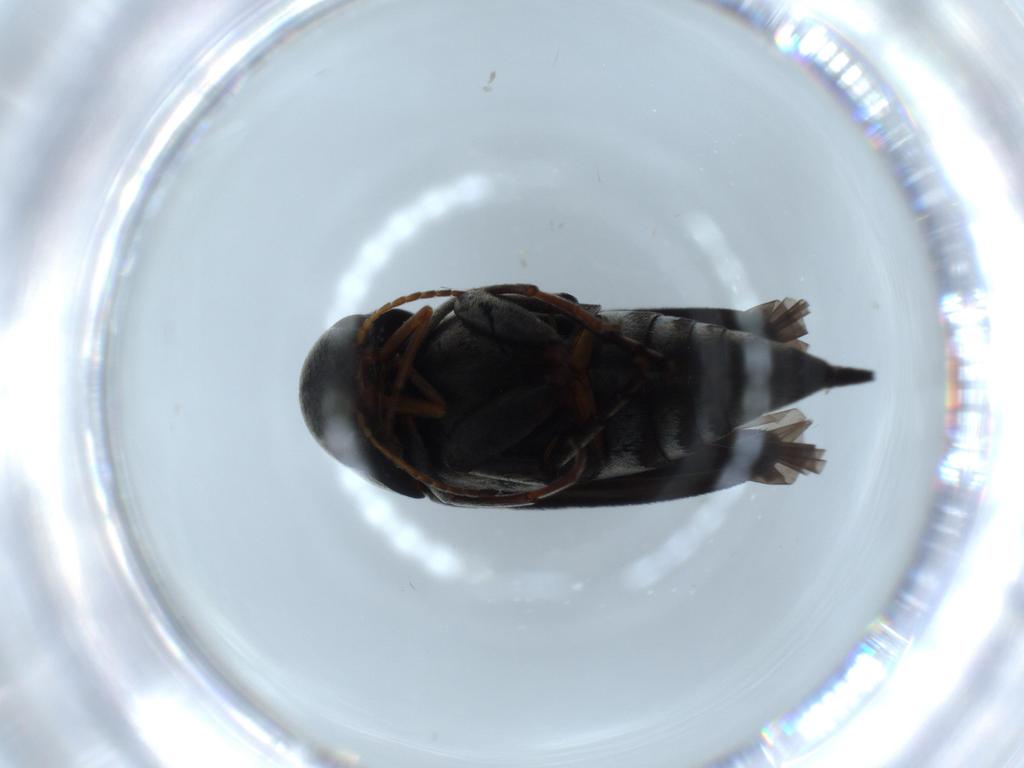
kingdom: Animalia
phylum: Arthropoda
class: Insecta
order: Coleoptera
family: Mordellidae
